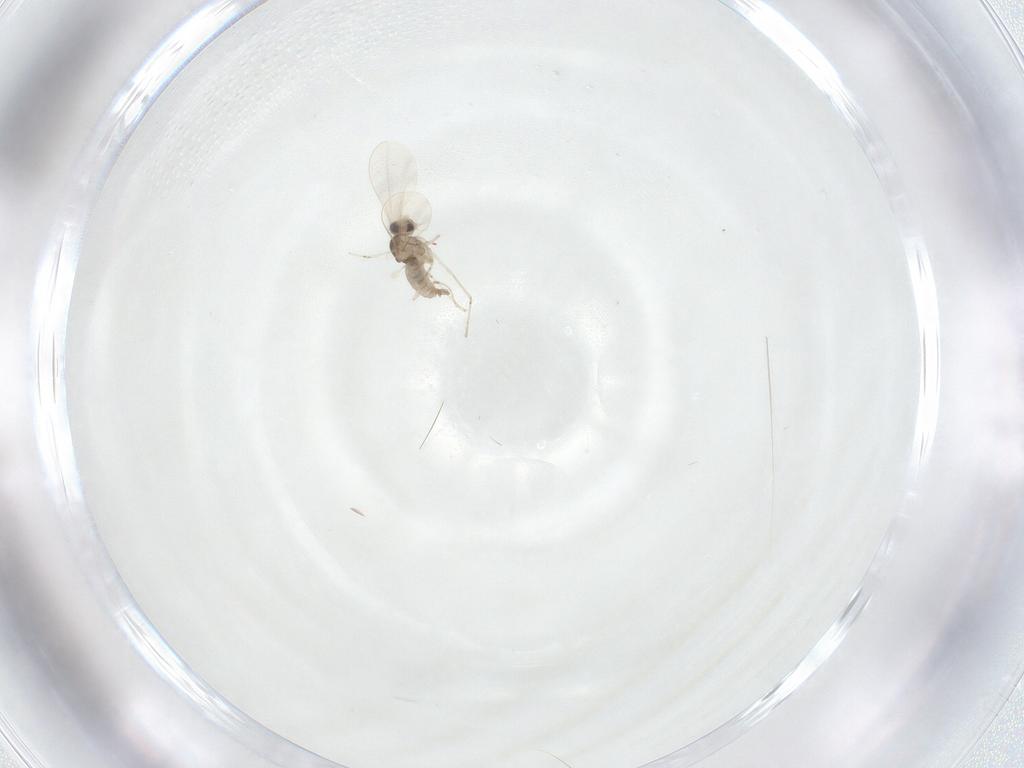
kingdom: Animalia
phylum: Arthropoda
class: Insecta
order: Diptera
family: Cecidomyiidae
